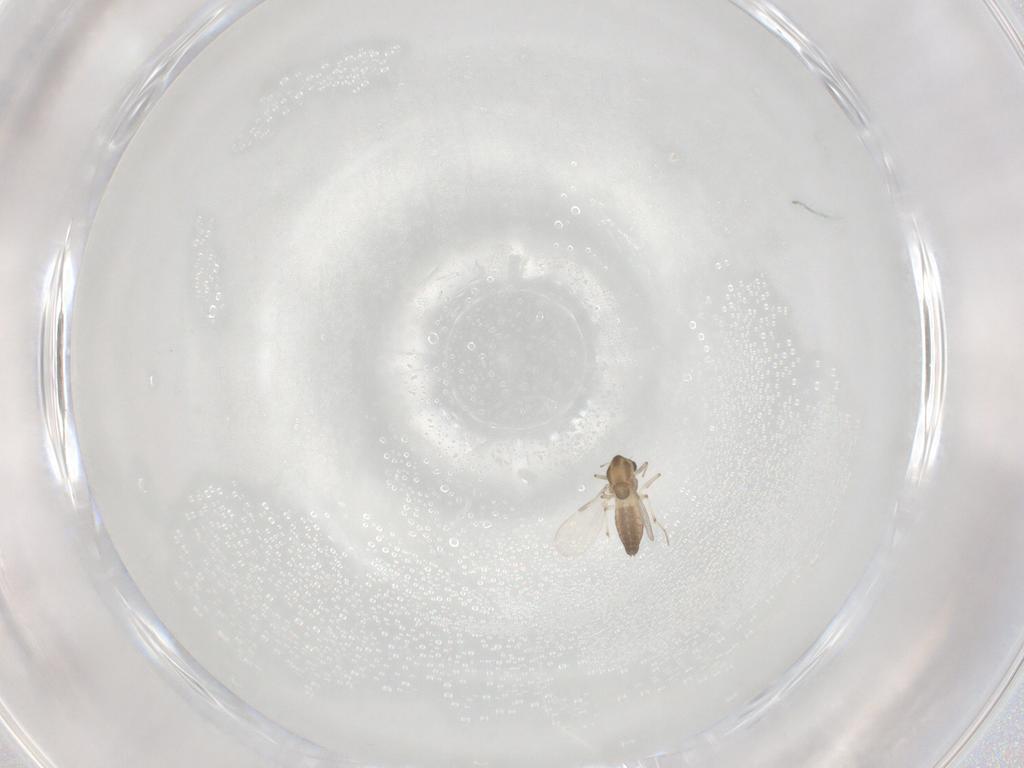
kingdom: Animalia
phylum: Arthropoda
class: Insecta
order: Diptera
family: Chironomidae
